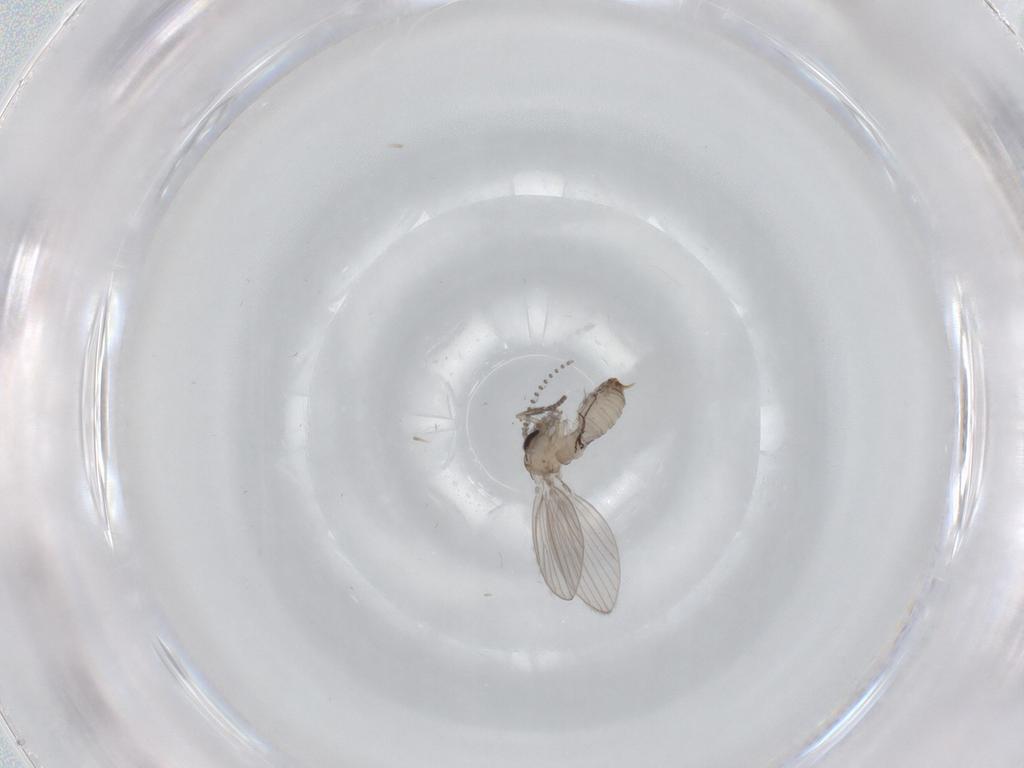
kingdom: Animalia
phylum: Arthropoda
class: Insecta
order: Diptera
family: Psychodidae
